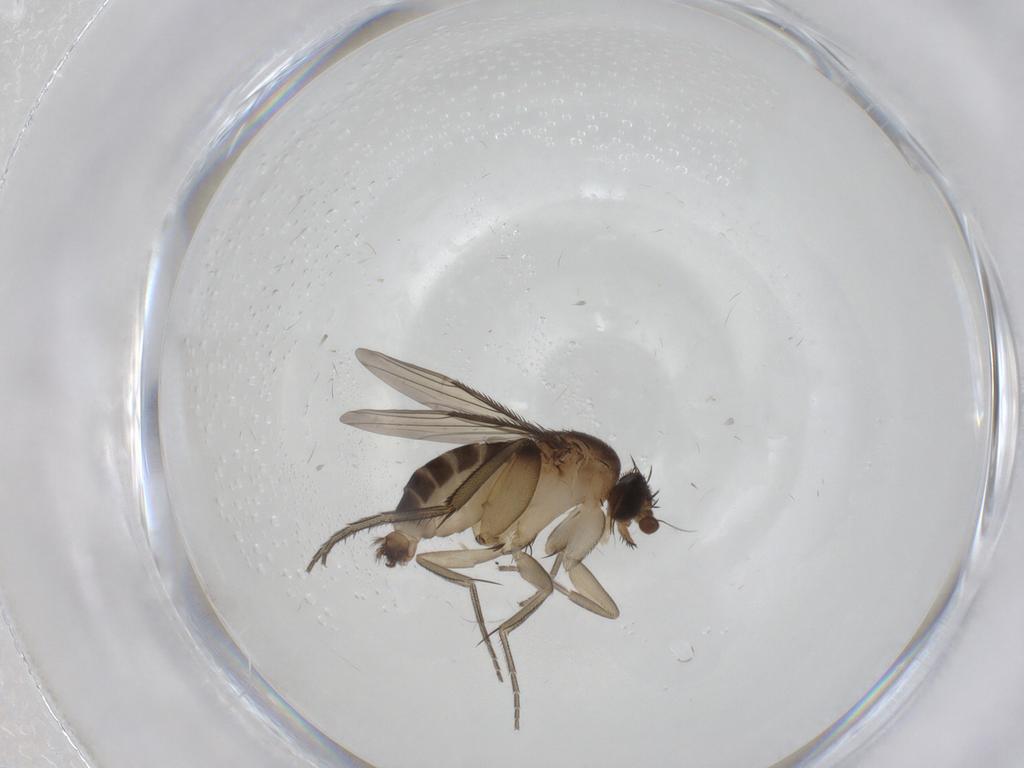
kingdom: Animalia
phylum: Arthropoda
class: Insecta
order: Diptera
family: Phoridae
